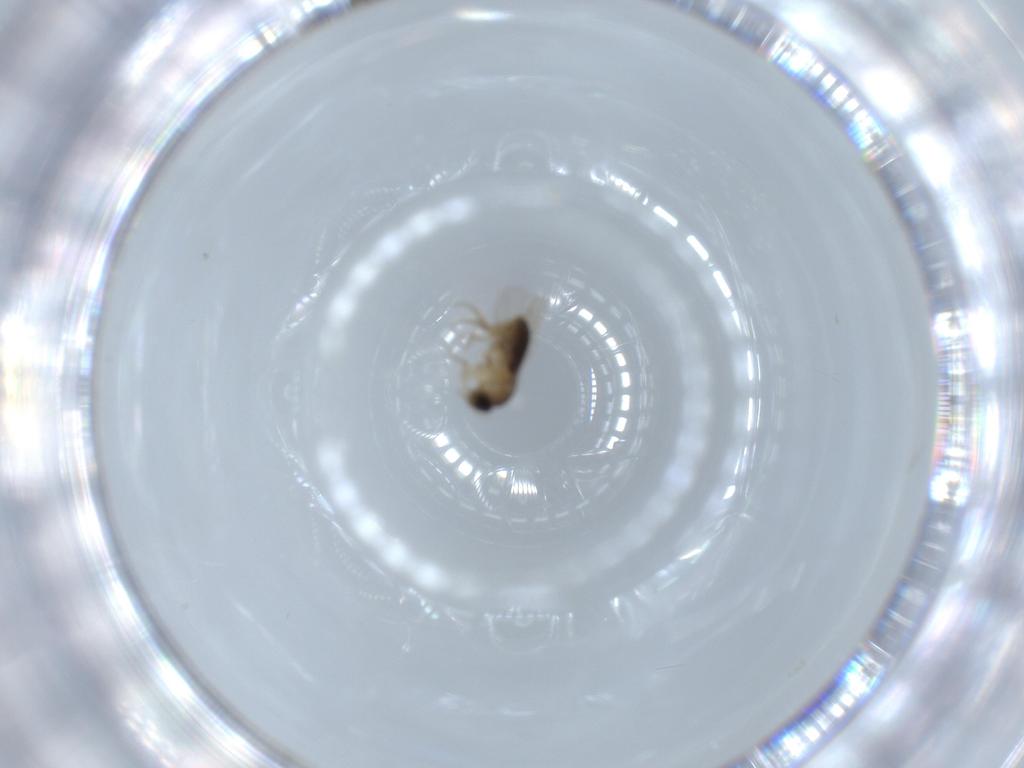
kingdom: Animalia
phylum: Arthropoda
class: Insecta
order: Diptera
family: Phoridae
